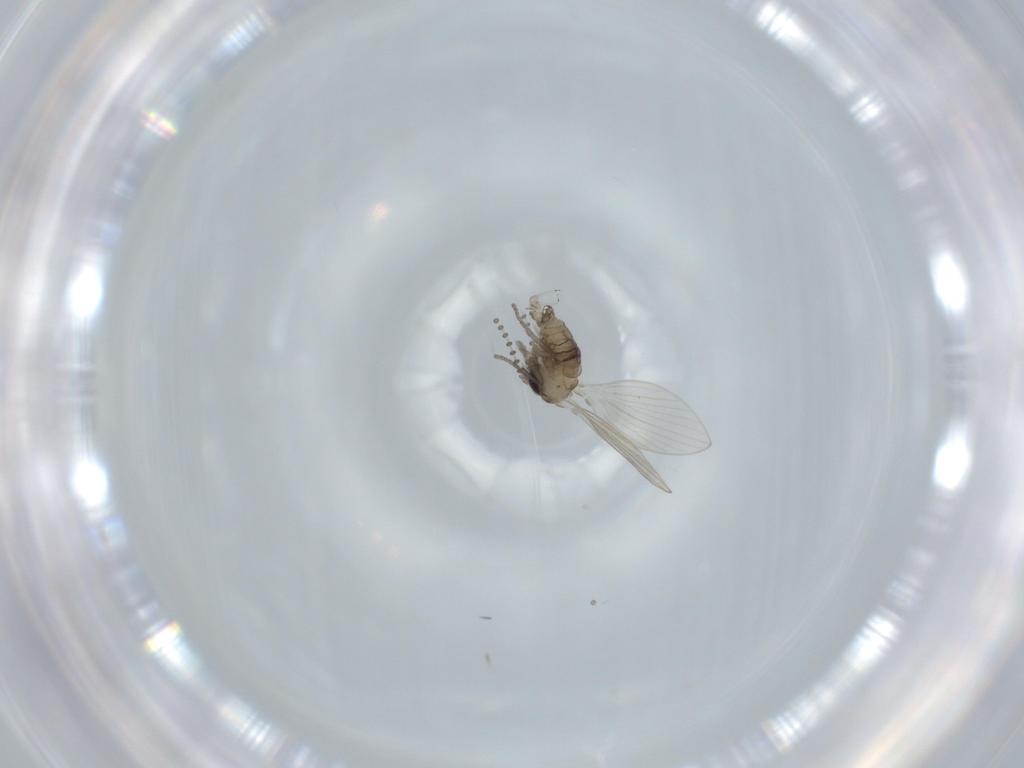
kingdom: Animalia
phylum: Arthropoda
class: Insecta
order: Diptera
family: Psychodidae
